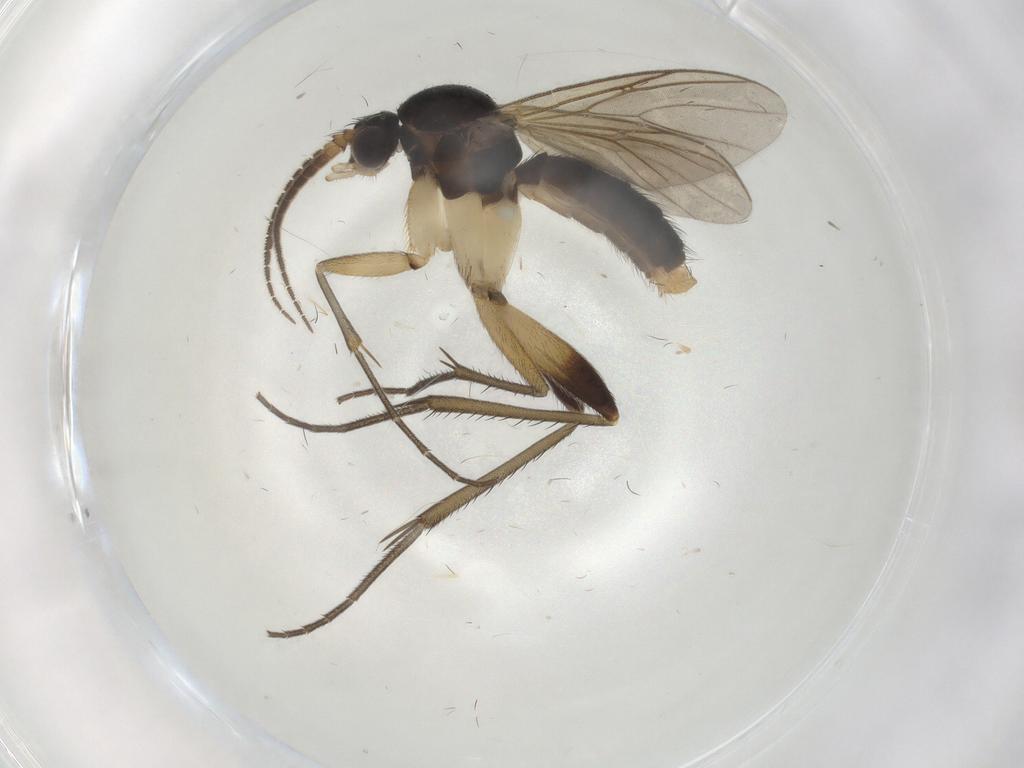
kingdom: Animalia
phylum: Arthropoda
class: Insecta
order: Diptera
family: Mycetophilidae
